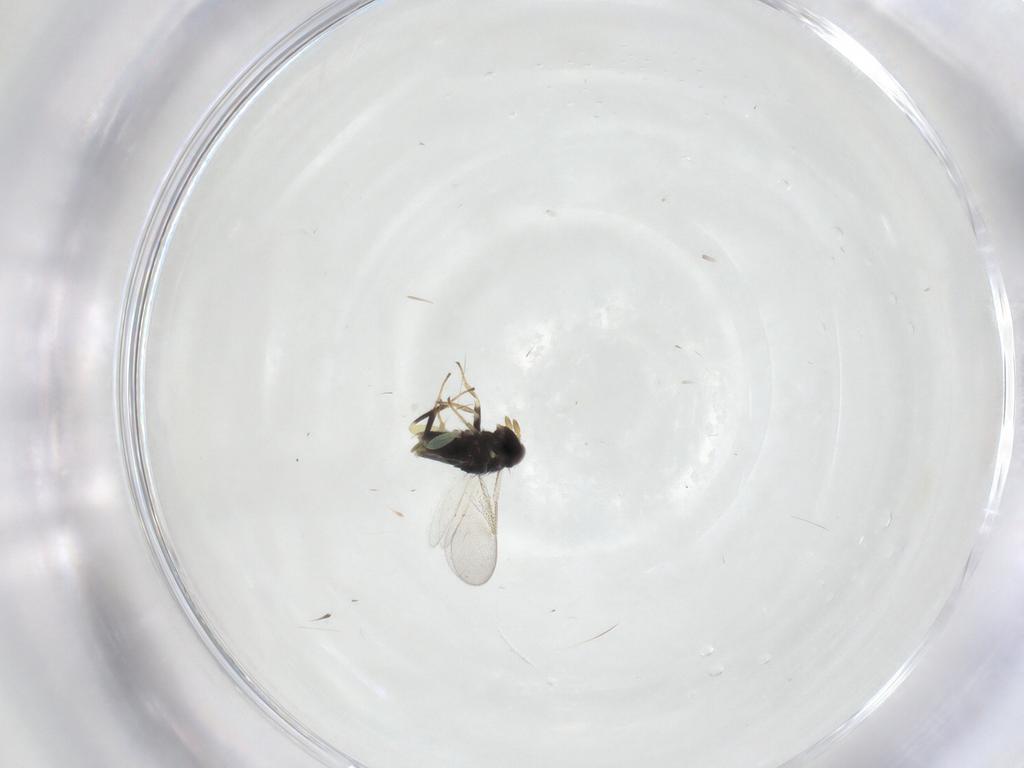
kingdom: Animalia
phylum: Arthropoda
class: Insecta
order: Hymenoptera
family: Aphelinidae
